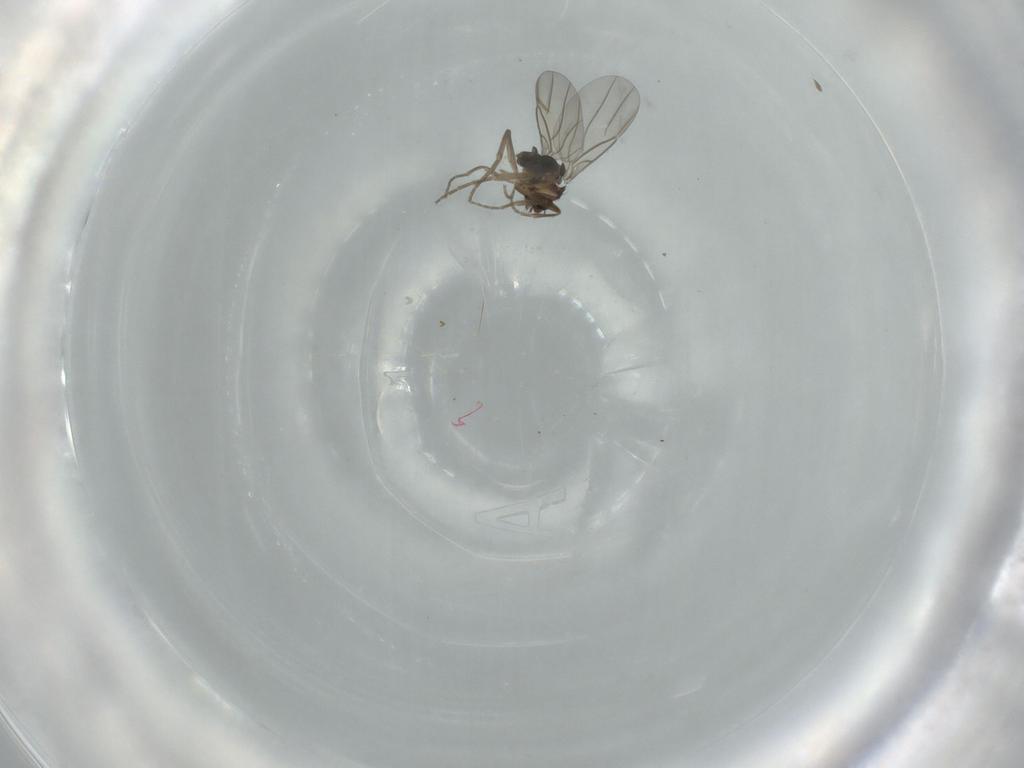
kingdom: Animalia
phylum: Arthropoda
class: Insecta
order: Diptera
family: Phoridae
